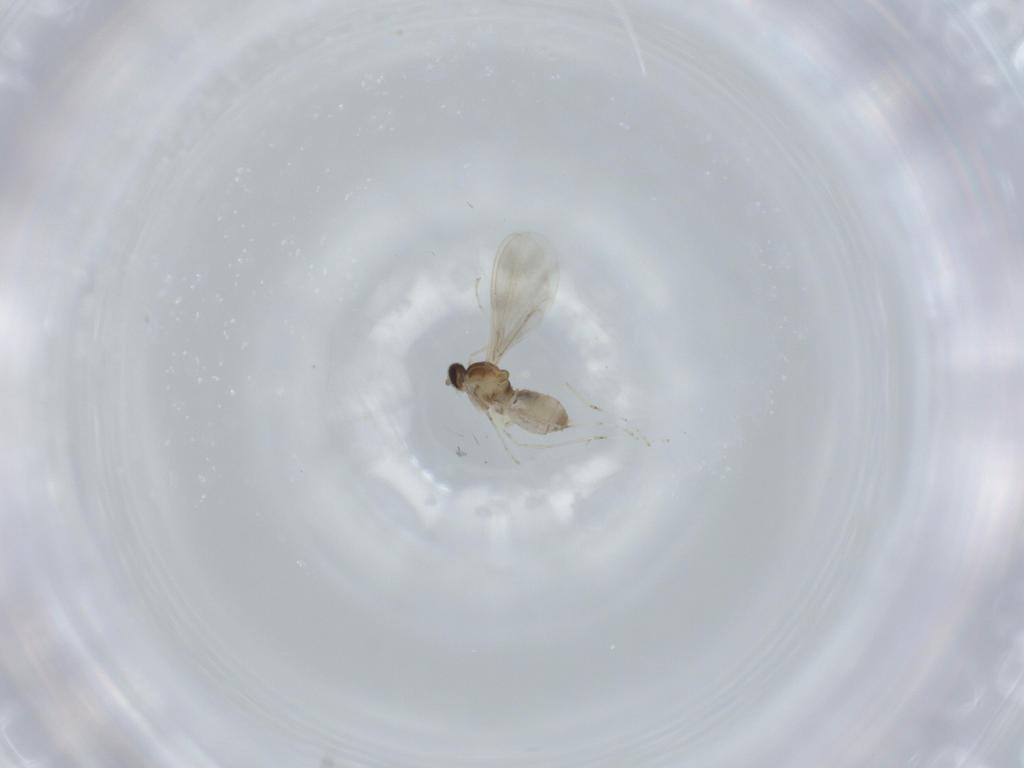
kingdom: Animalia
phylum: Arthropoda
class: Insecta
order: Diptera
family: Cecidomyiidae
